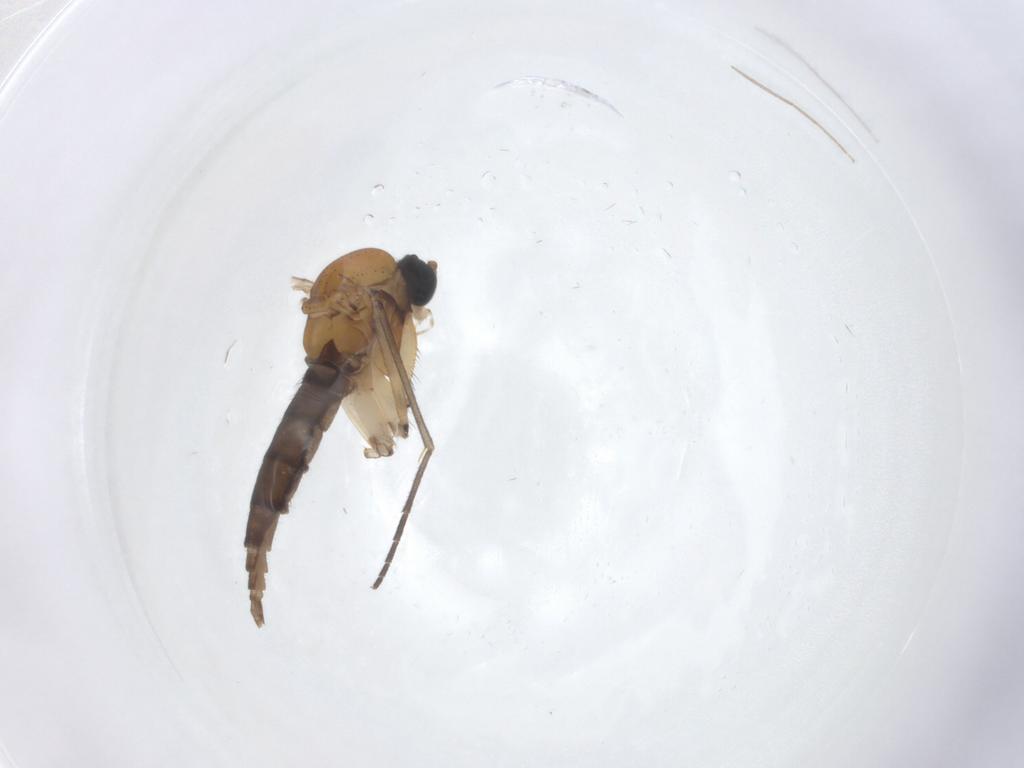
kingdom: Animalia
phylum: Arthropoda
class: Insecta
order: Diptera
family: Sciaridae
